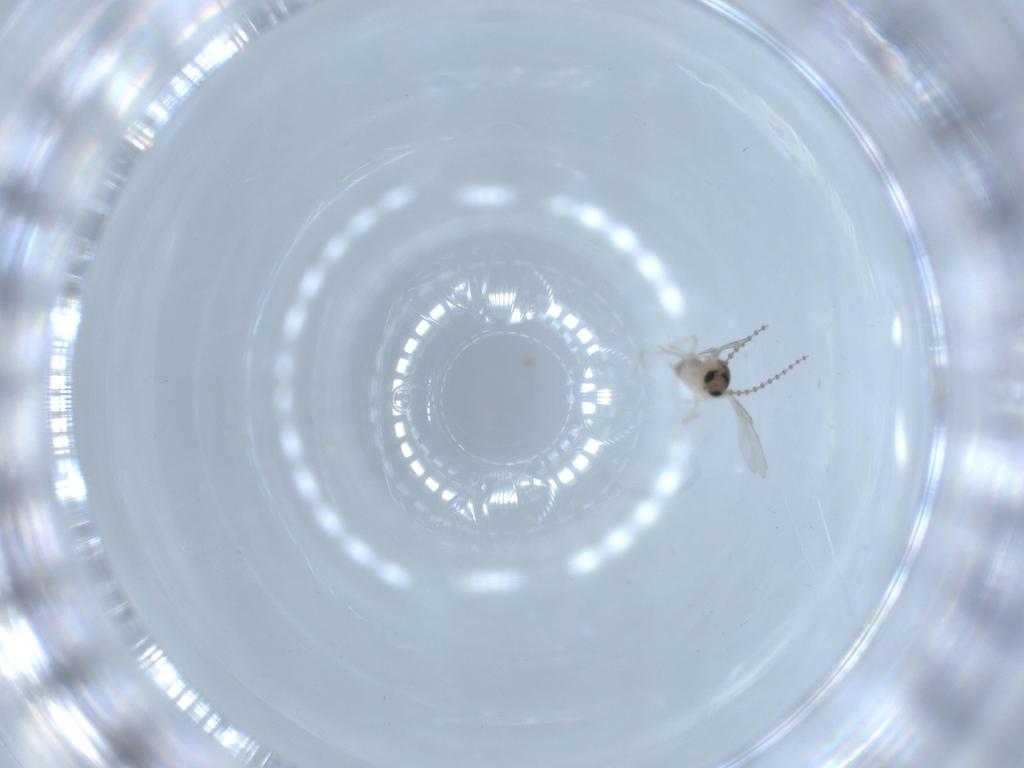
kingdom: Animalia
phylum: Arthropoda
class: Insecta
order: Diptera
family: Cecidomyiidae
